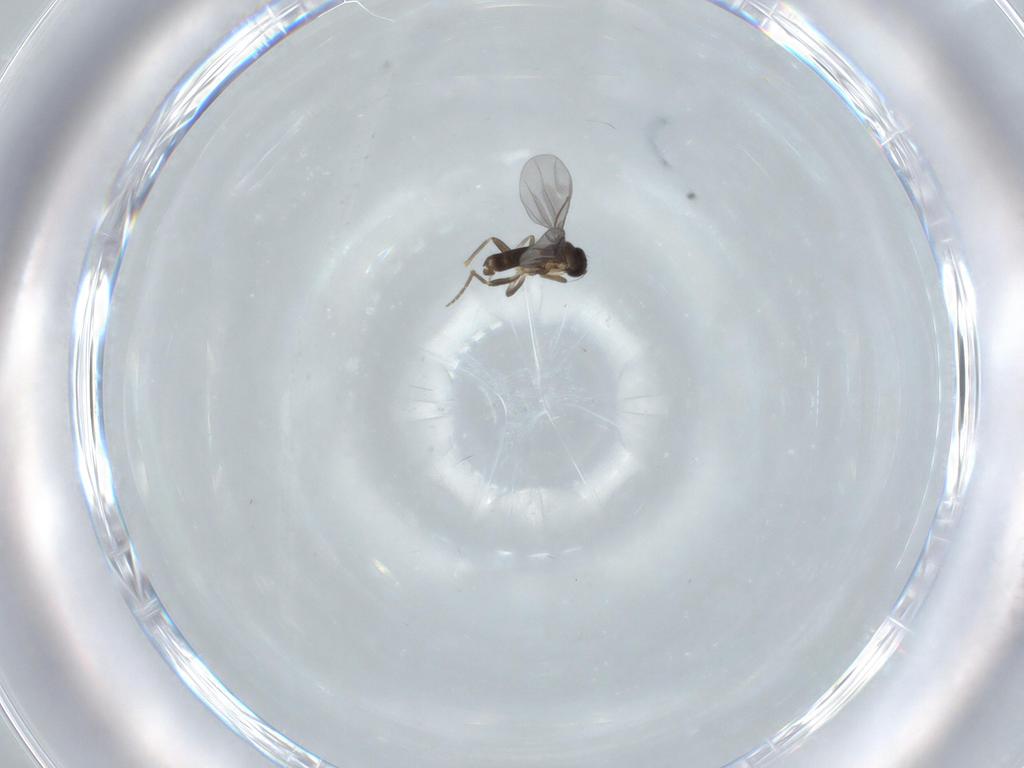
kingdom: Animalia
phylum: Arthropoda
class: Insecta
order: Diptera
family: Phoridae
